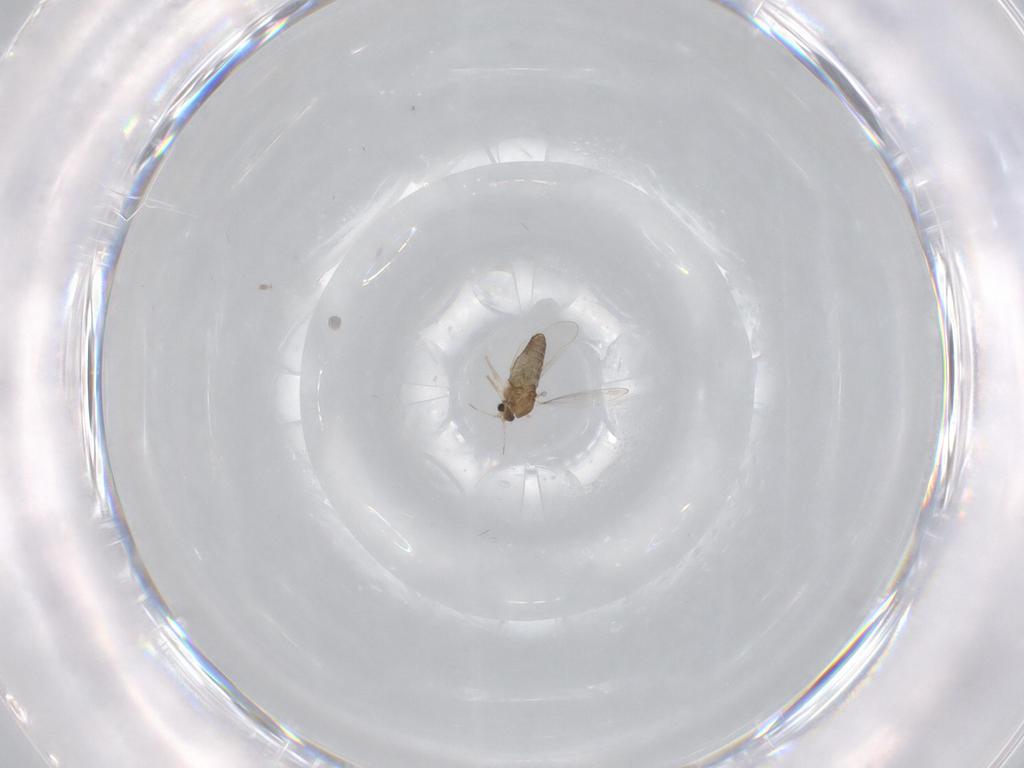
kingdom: Animalia
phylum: Arthropoda
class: Insecta
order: Diptera
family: Chironomidae
